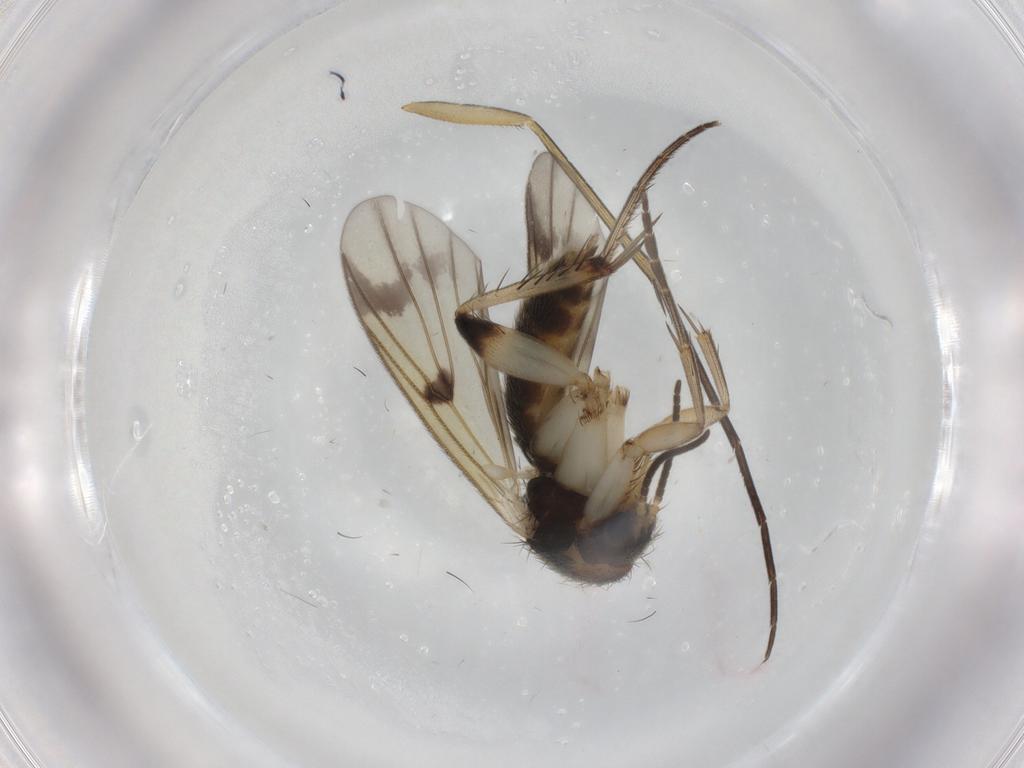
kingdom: Animalia
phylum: Arthropoda
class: Insecta
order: Diptera
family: Mycetophilidae
